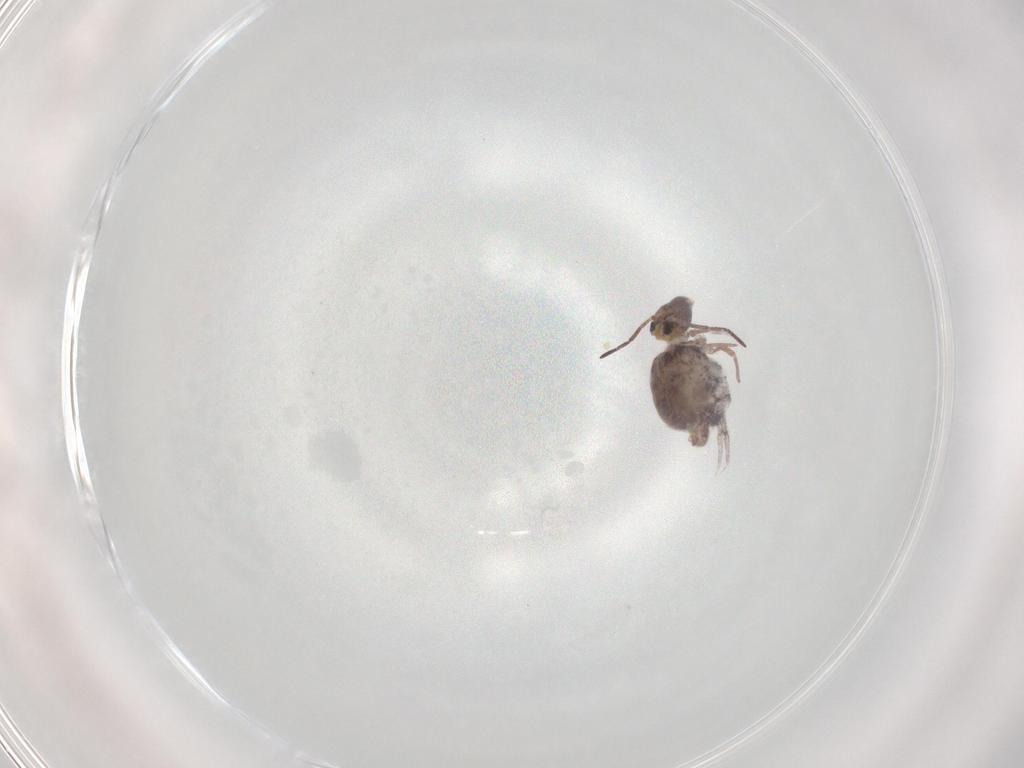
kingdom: Animalia
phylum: Arthropoda
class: Collembola
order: Symphypleona
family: Bourletiellidae
